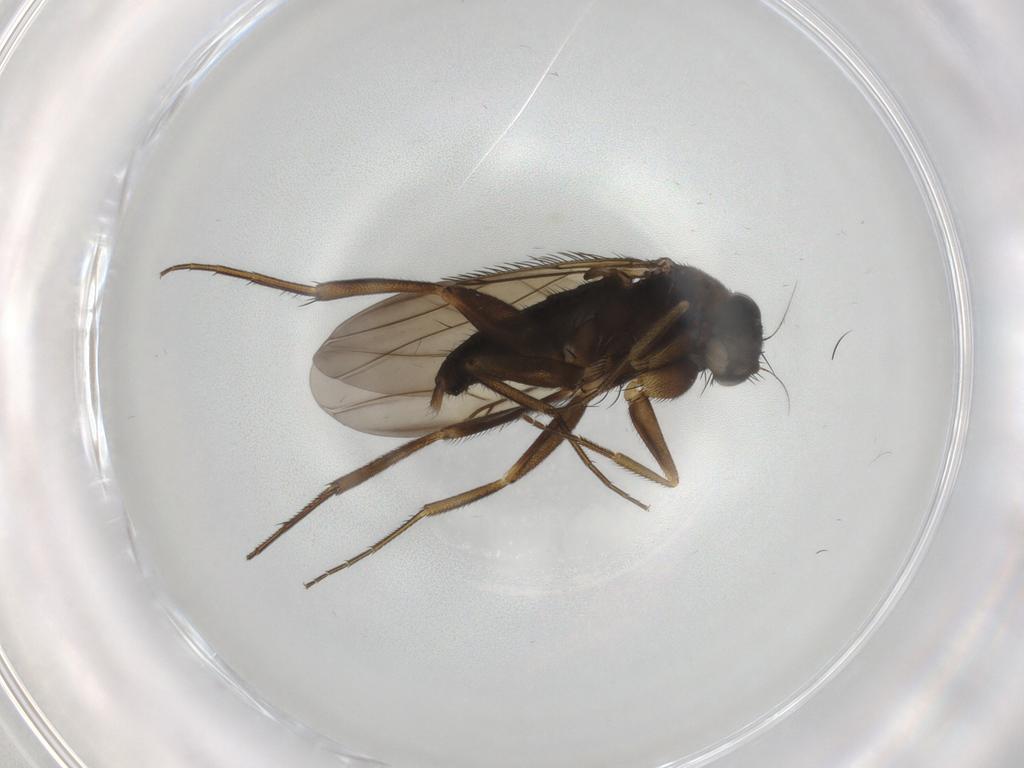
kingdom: Animalia
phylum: Arthropoda
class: Insecta
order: Diptera
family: Phoridae
